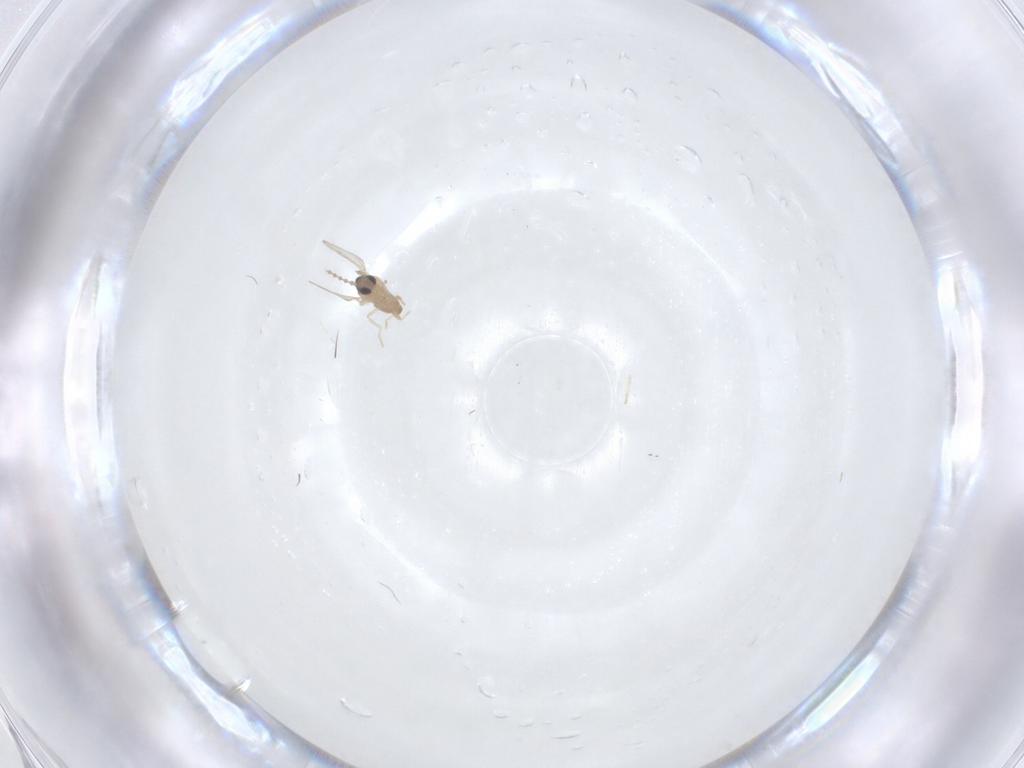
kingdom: Animalia
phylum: Arthropoda
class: Insecta
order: Diptera
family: Cecidomyiidae
